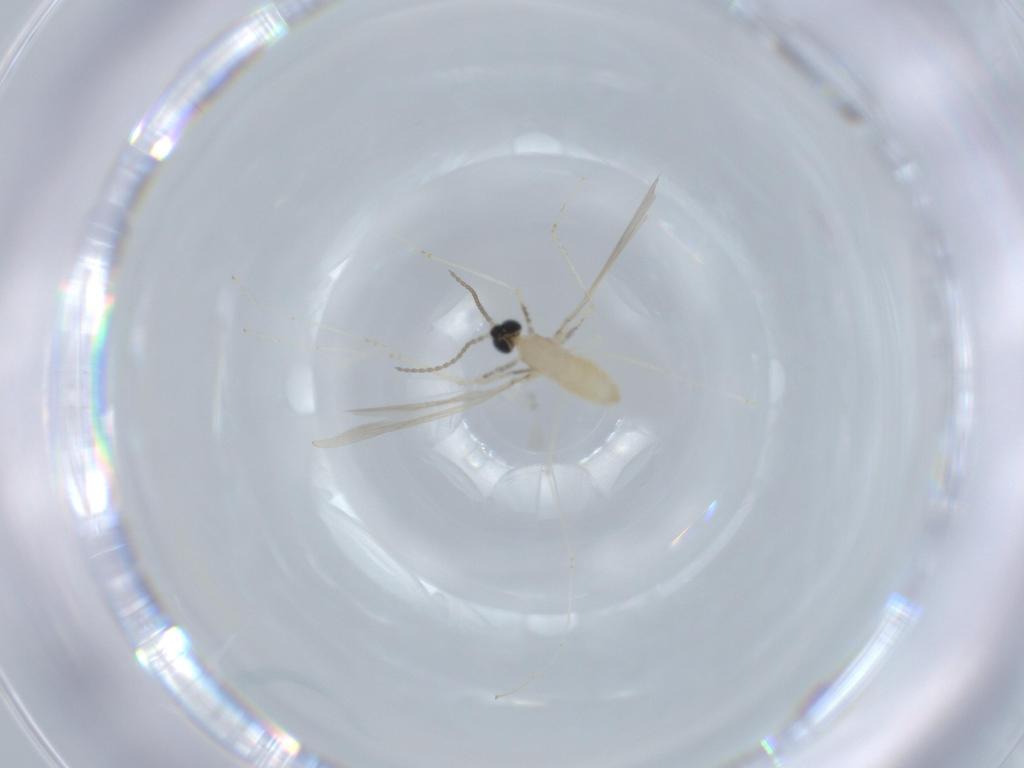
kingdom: Animalia
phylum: Arthropoda
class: Insecta
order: Diptera
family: Cecidomyiidae
